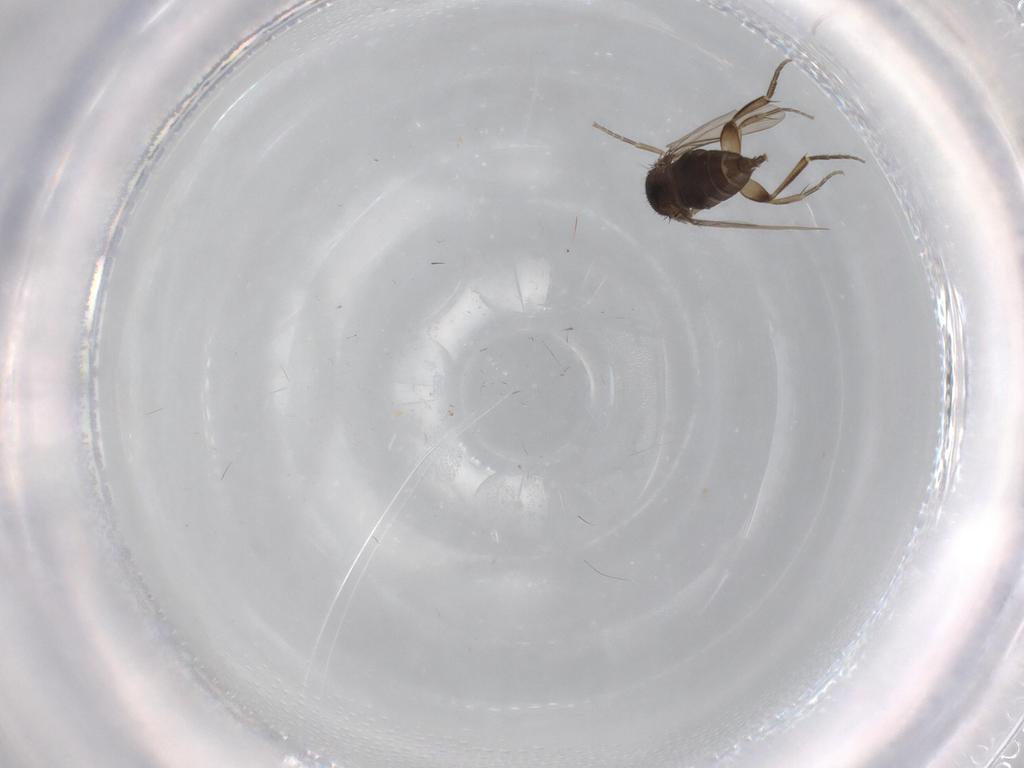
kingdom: Animalia
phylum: Arthropoda
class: Insecta
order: Diptera
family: Phoridae
